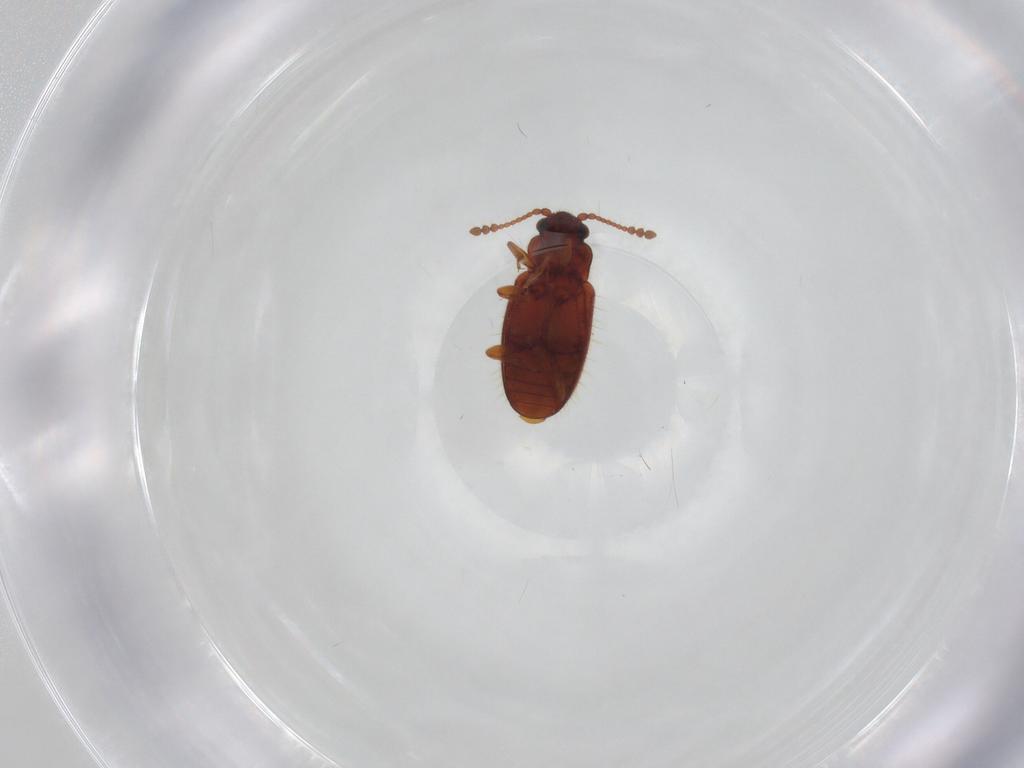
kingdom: Animalia
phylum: Arthropoda
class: Insecta
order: Coleoptera
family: Cryptophagidae
